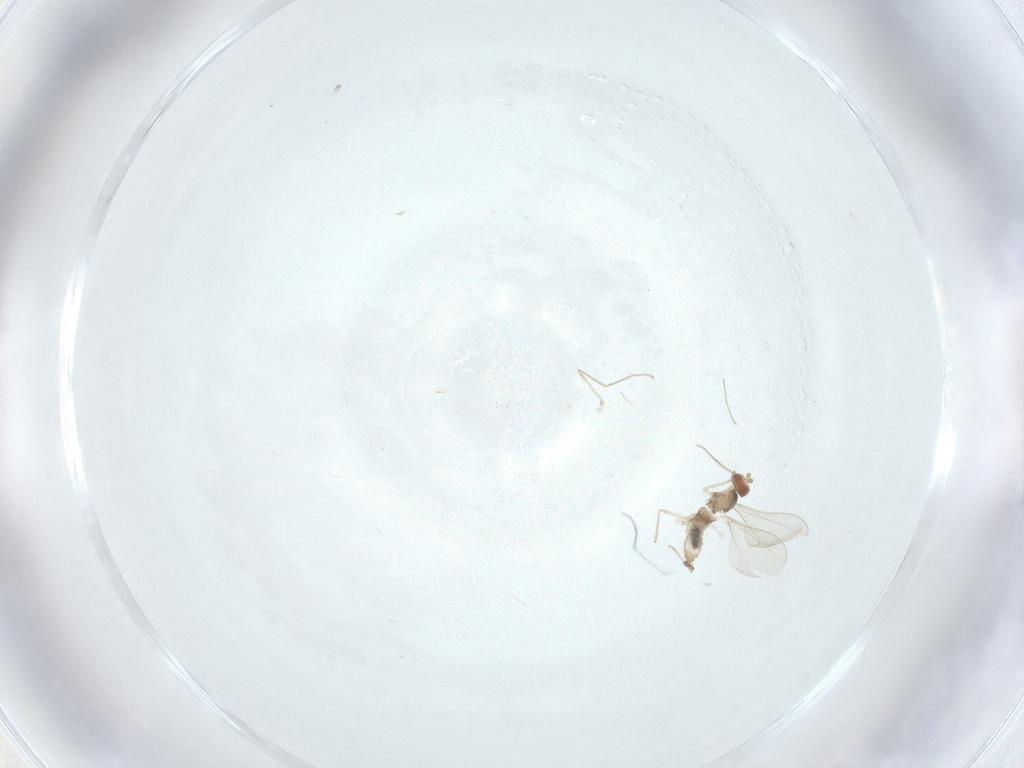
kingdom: Animalia
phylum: Arthropoda
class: Insecta
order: Diptera
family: Cecidomyiidae
